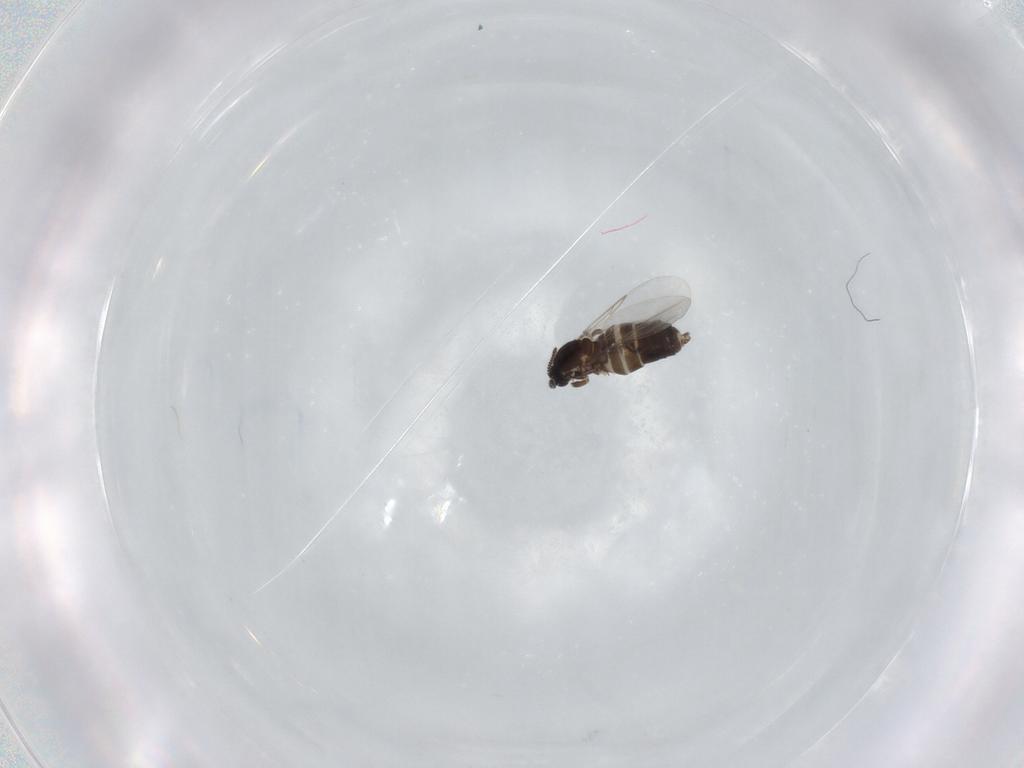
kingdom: Animalia
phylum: Arthropoda
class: Insecta
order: Diptera
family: Scatopsidae
